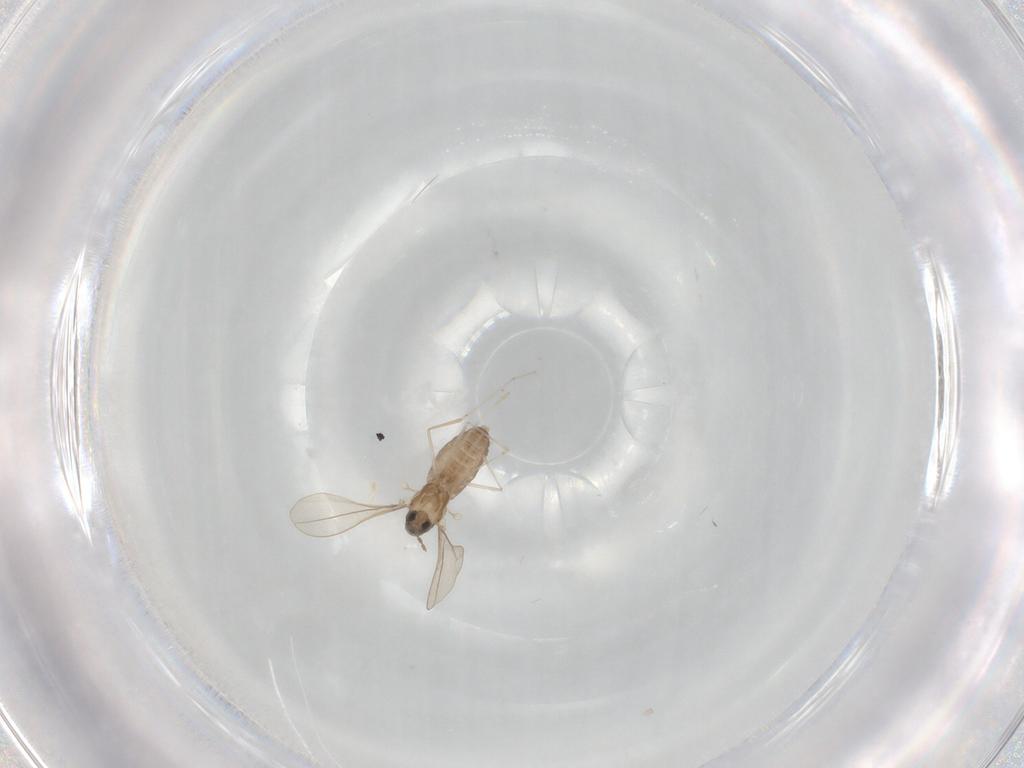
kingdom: Animalia
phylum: Arthropoda
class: Insecta
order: Diptera
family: Cecidomyiidae
